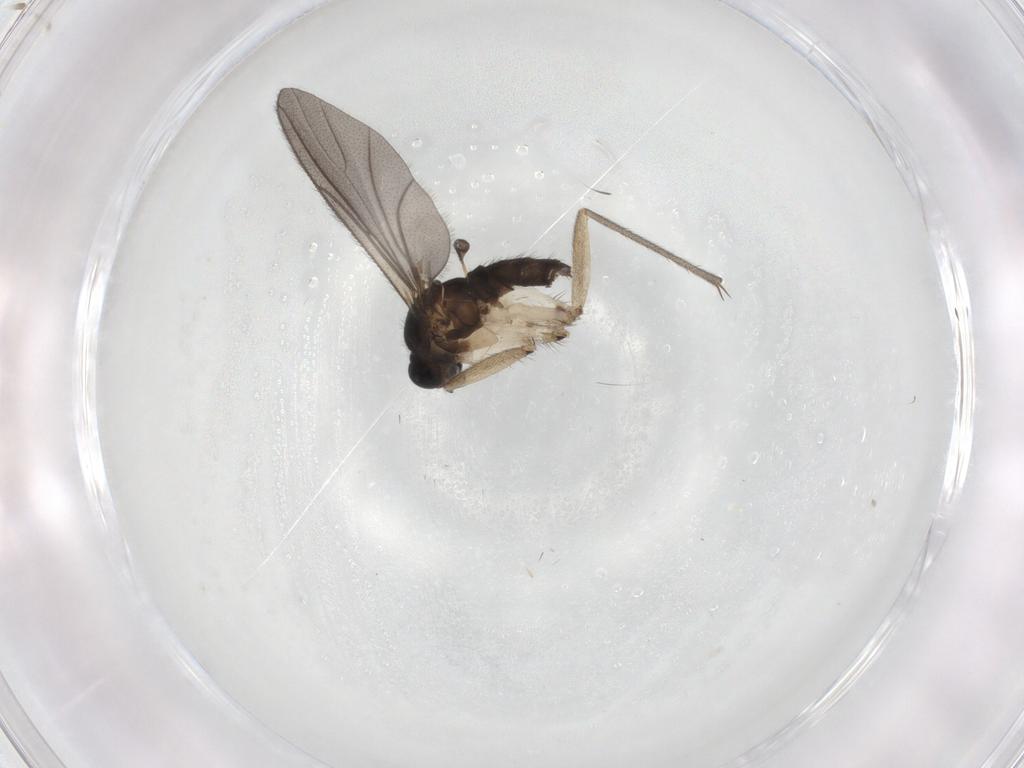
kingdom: Animalia
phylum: Arthropoda
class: Insecta
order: Diptera
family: Sciaridae
